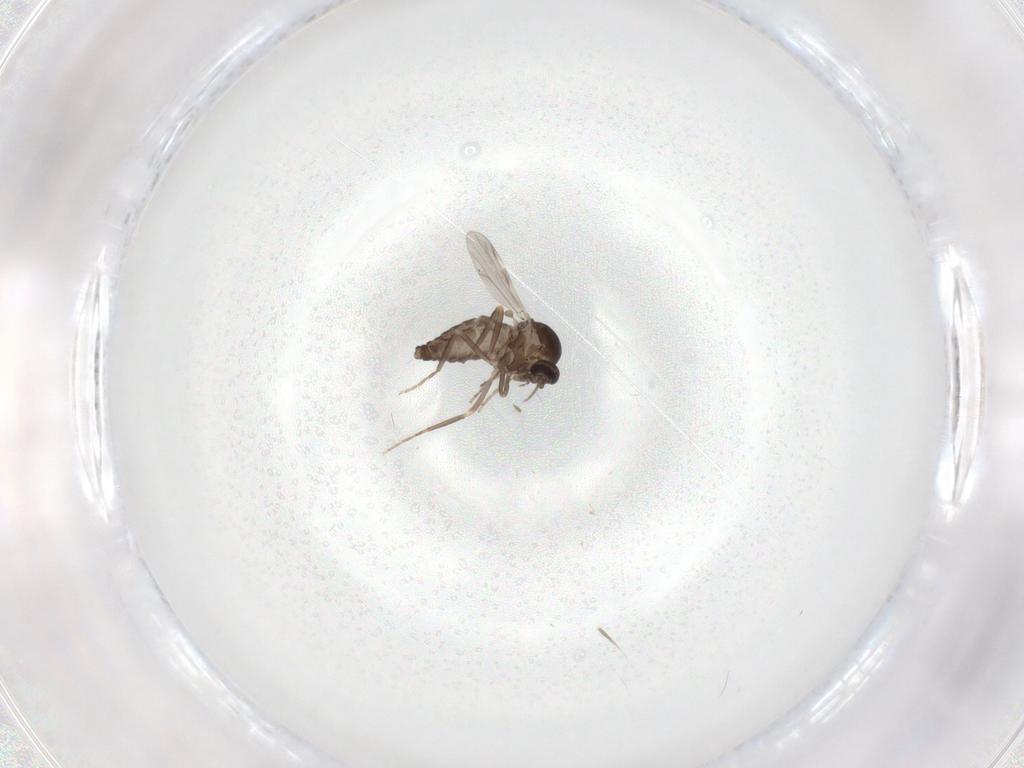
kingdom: Animalia
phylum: Arthropoda
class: Insecta
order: Diptera
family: Ceratopogonidae
